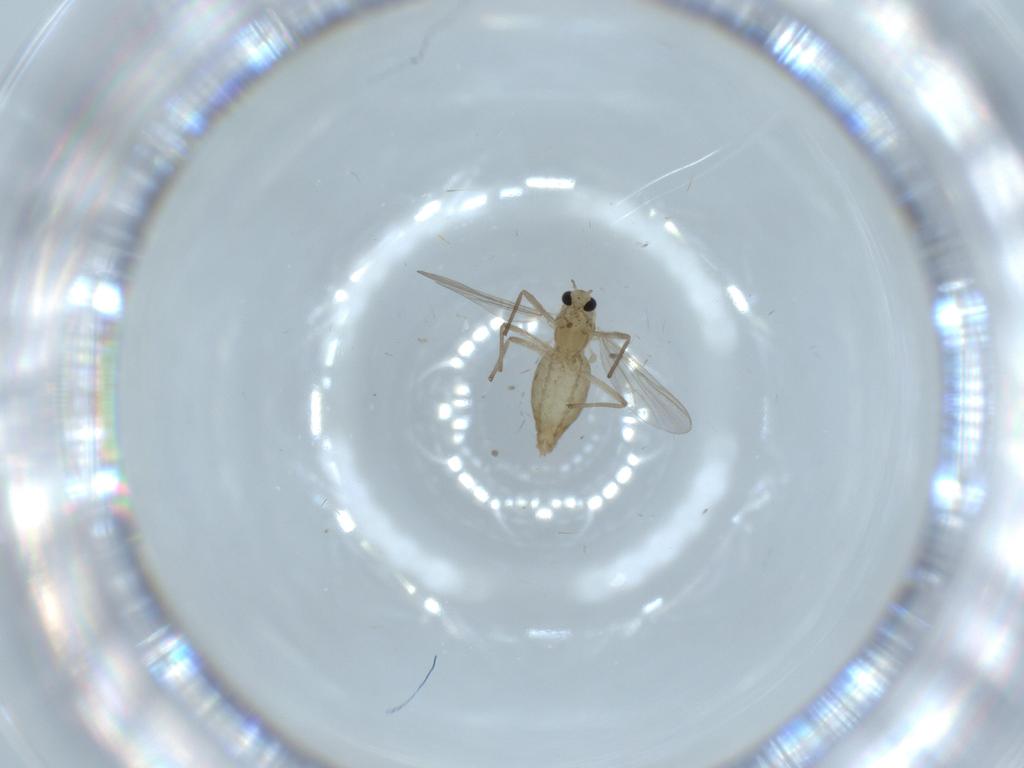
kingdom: Animalia
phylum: Arthropoda
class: Insecta
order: Diptera
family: Chironomidae
